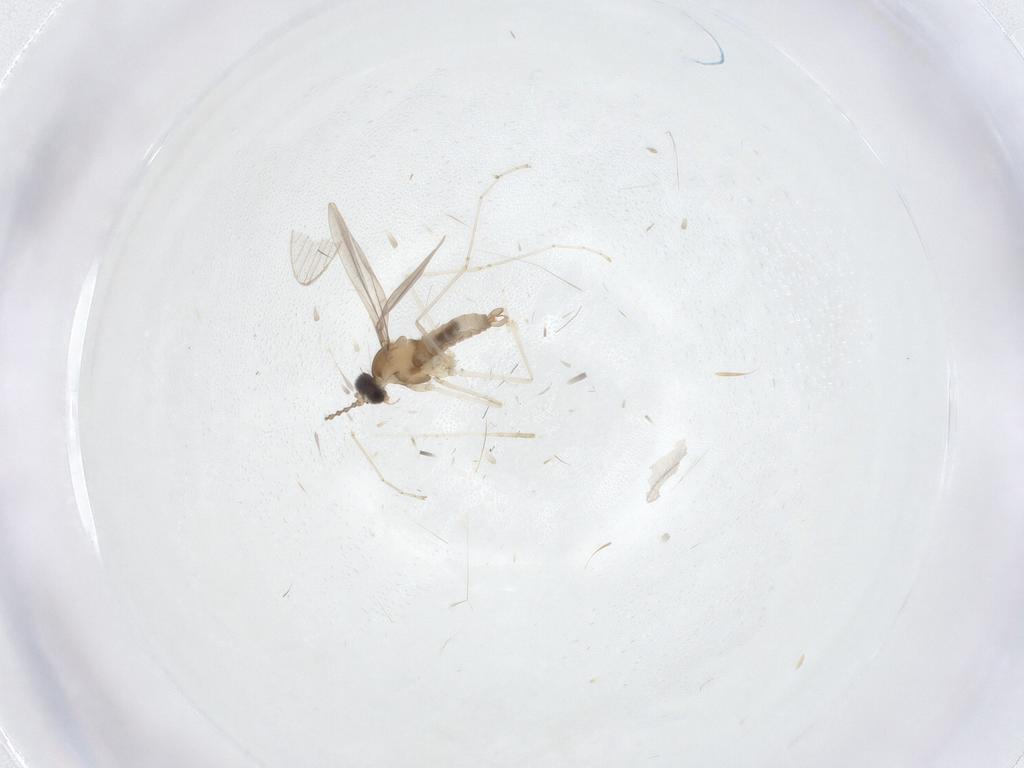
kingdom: Animalia
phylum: Arthropoda
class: Insecta
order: Diptera
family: Cecidomyiidae
